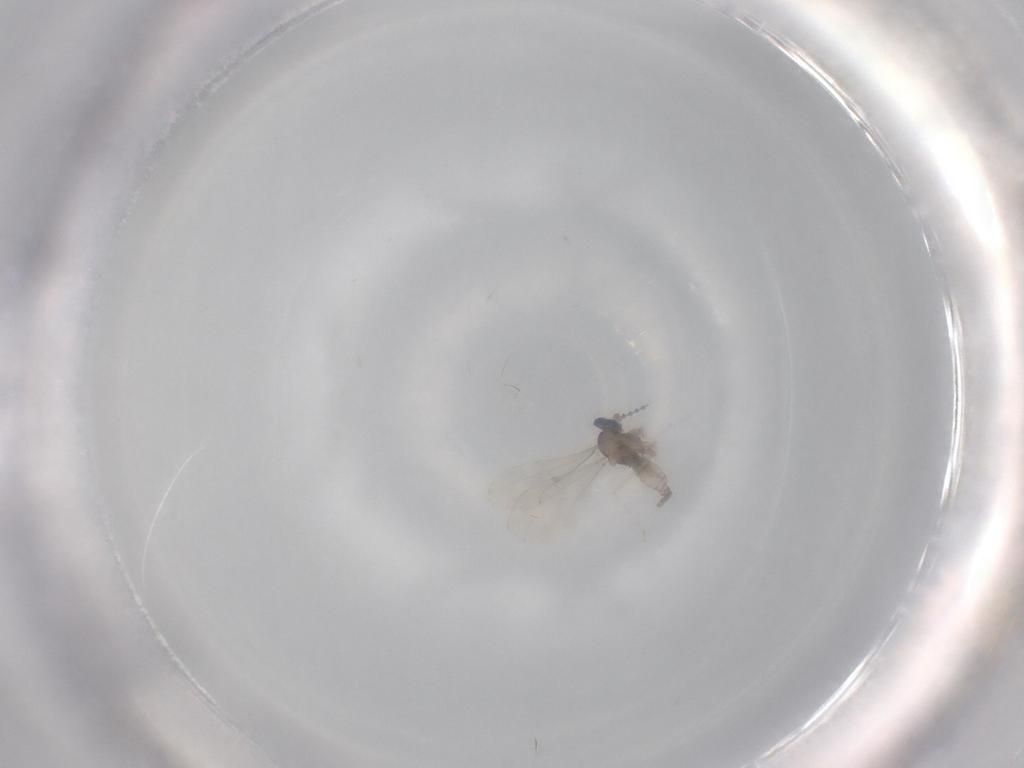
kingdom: Animalia
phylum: Arthropoda
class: Insecta
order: Diptera
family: Cecidomyiidae
